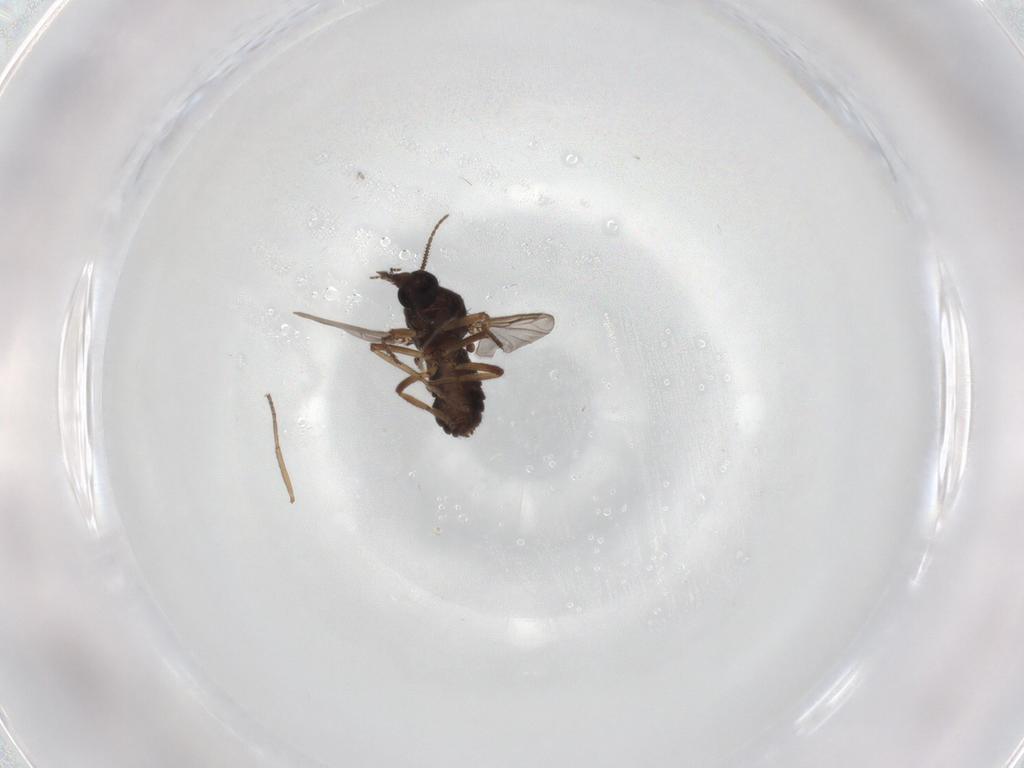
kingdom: Animalia
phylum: Arthropoda
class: Insecta
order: Diptera
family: Ceratopogonidae
